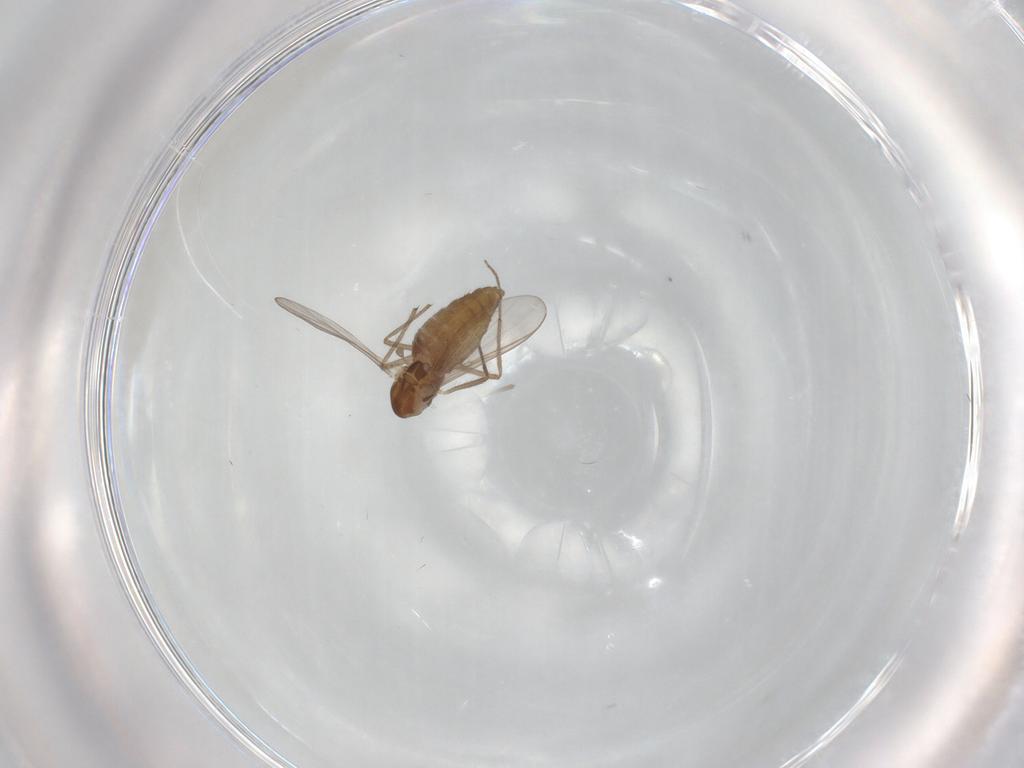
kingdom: Animalia
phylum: Arthropoda
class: Insecta
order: Diptera
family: Chironomidae
